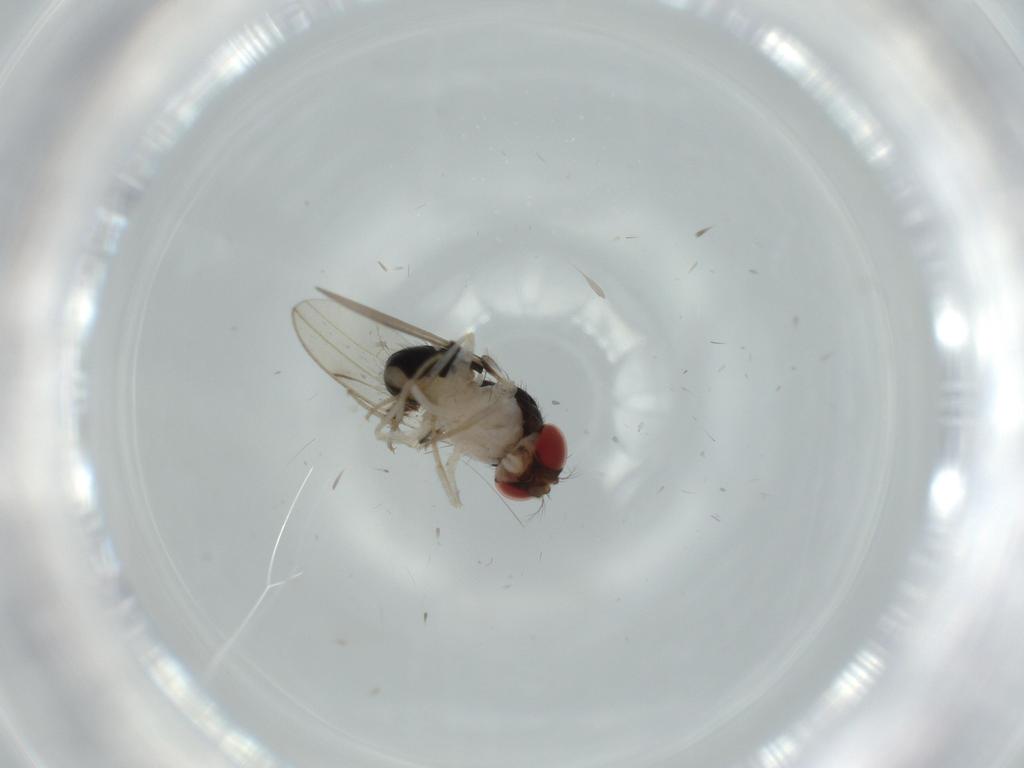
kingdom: Animalia
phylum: Arthropoda
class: Insecta
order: Diptera
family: Drosophilidae
